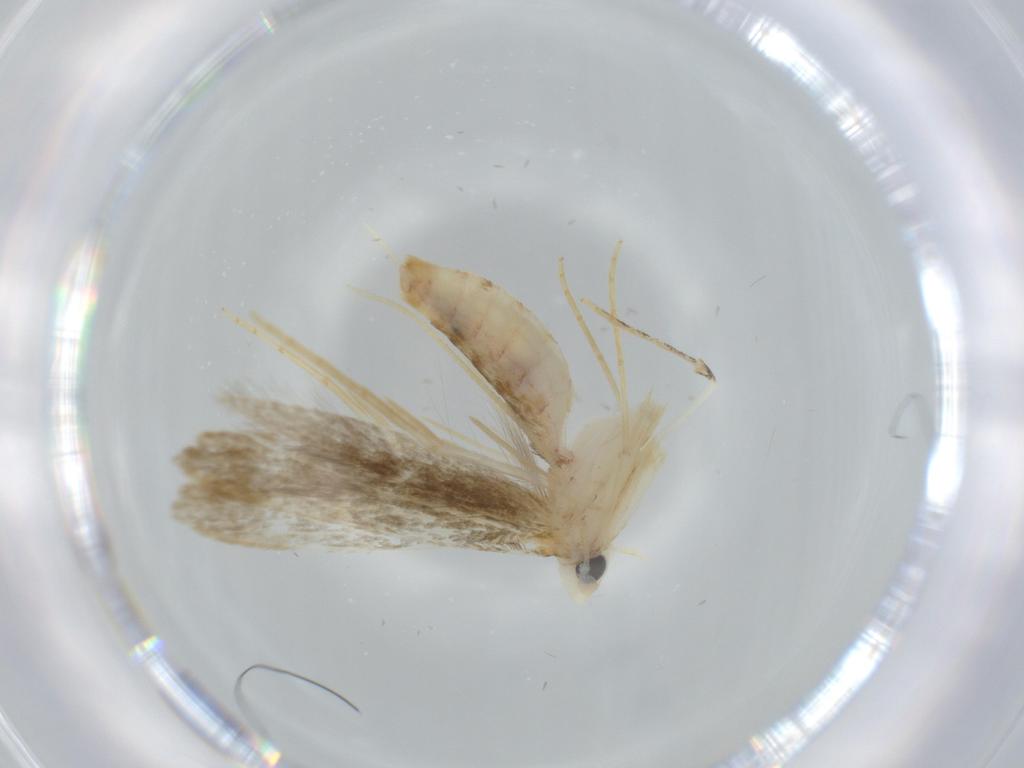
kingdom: Animalia
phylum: Arthropoda
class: Insecta
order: Lepidoptera
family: Lyonetiidae
